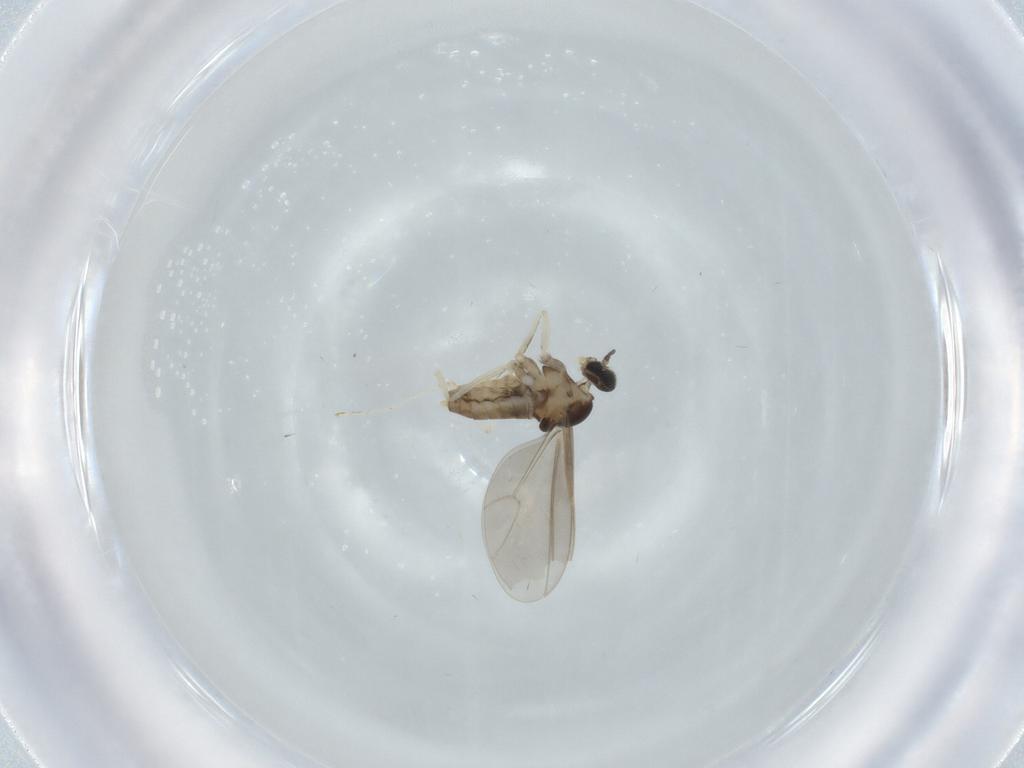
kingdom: Animalia
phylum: Arthropoda
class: Insecta
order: Diptera
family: Cecidomyiidae
